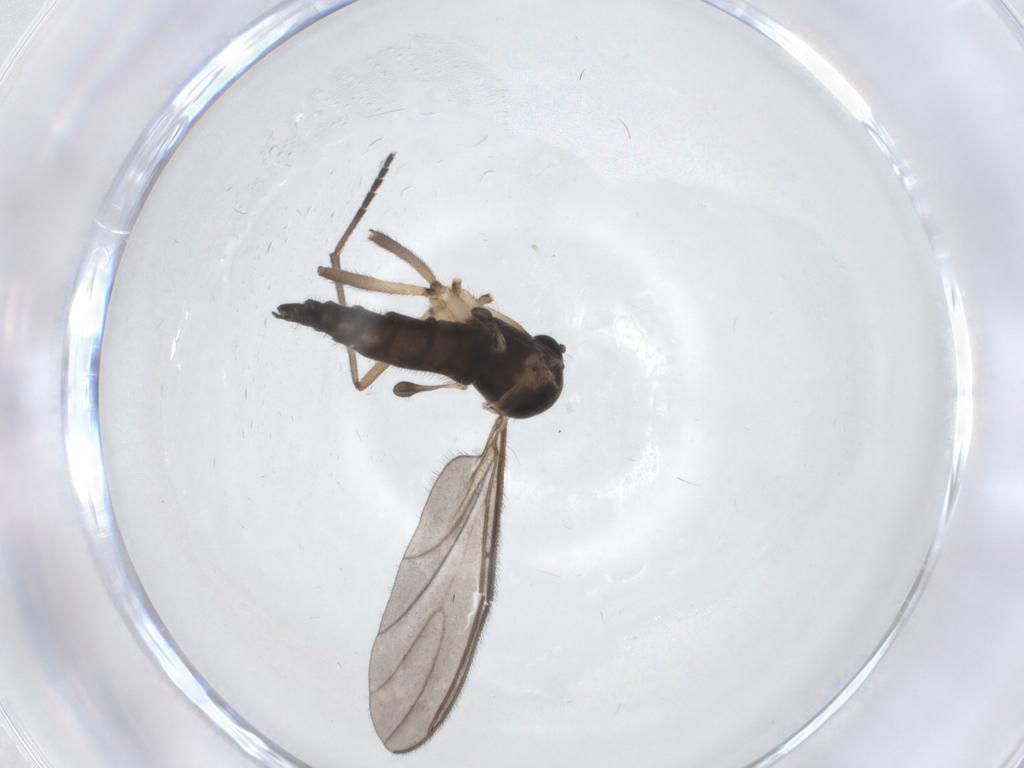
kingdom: Animalia
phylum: Arthropoda
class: Insecta
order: Diptera
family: Sciaridae
